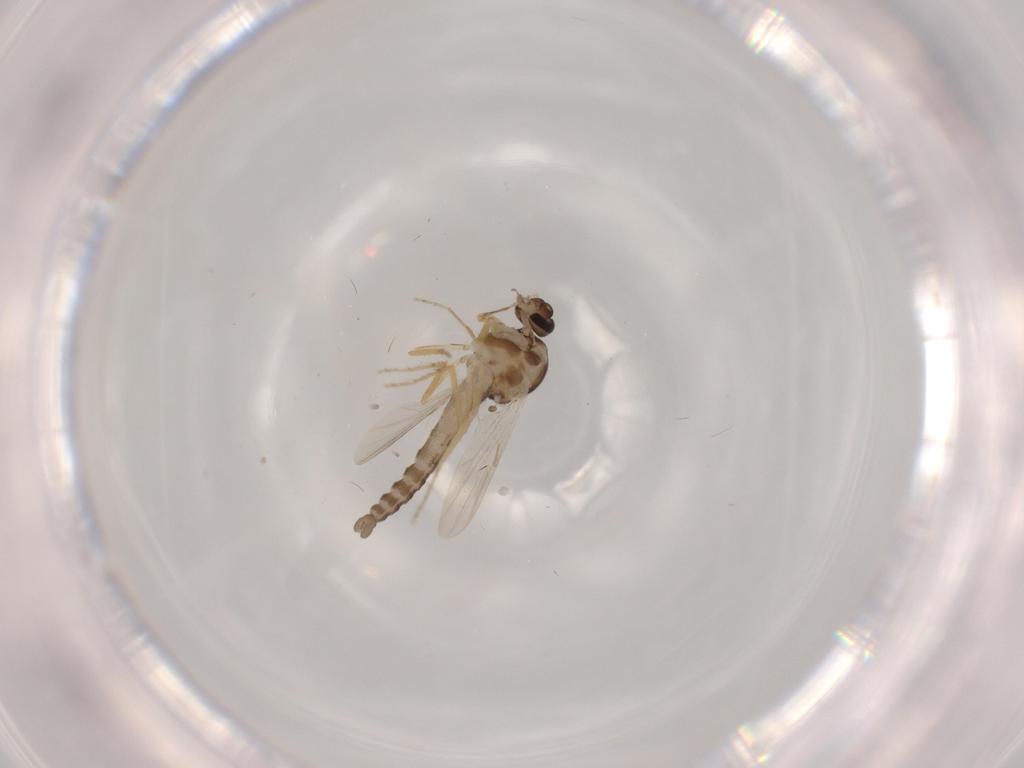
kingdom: Animalia
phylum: Arthropoda
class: Insecta
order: Diptera
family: Ceratopogonidae
